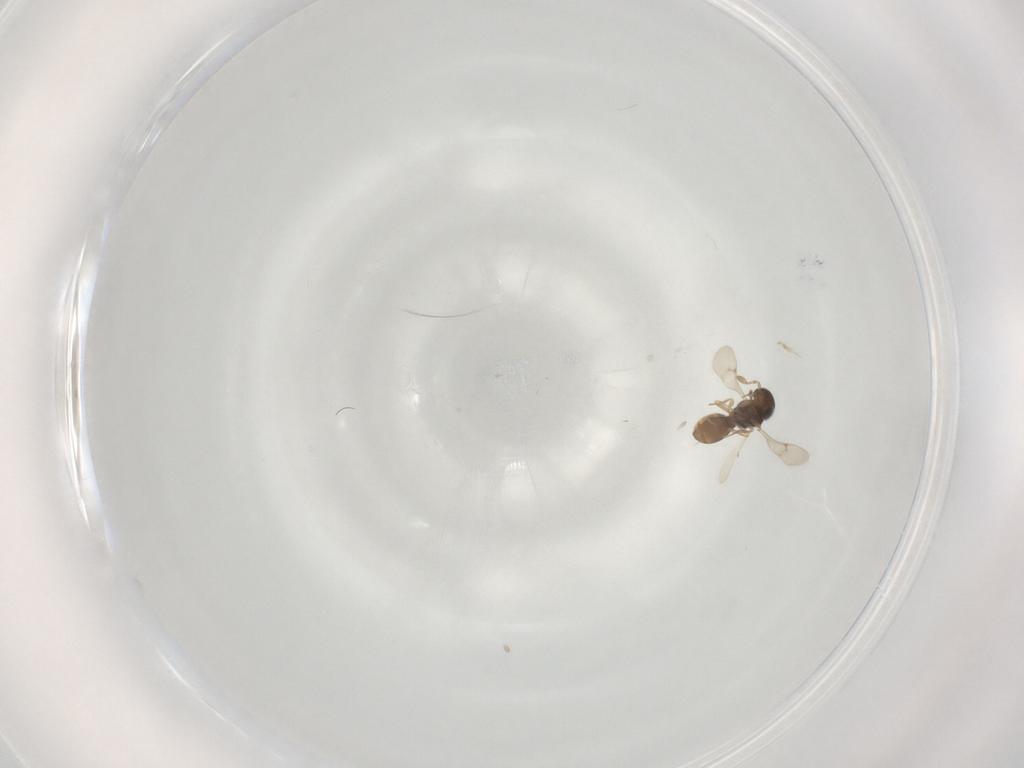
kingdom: Animalia
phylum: Arthropoda
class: Insecta
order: Hymenoptera
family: Scelionidae
